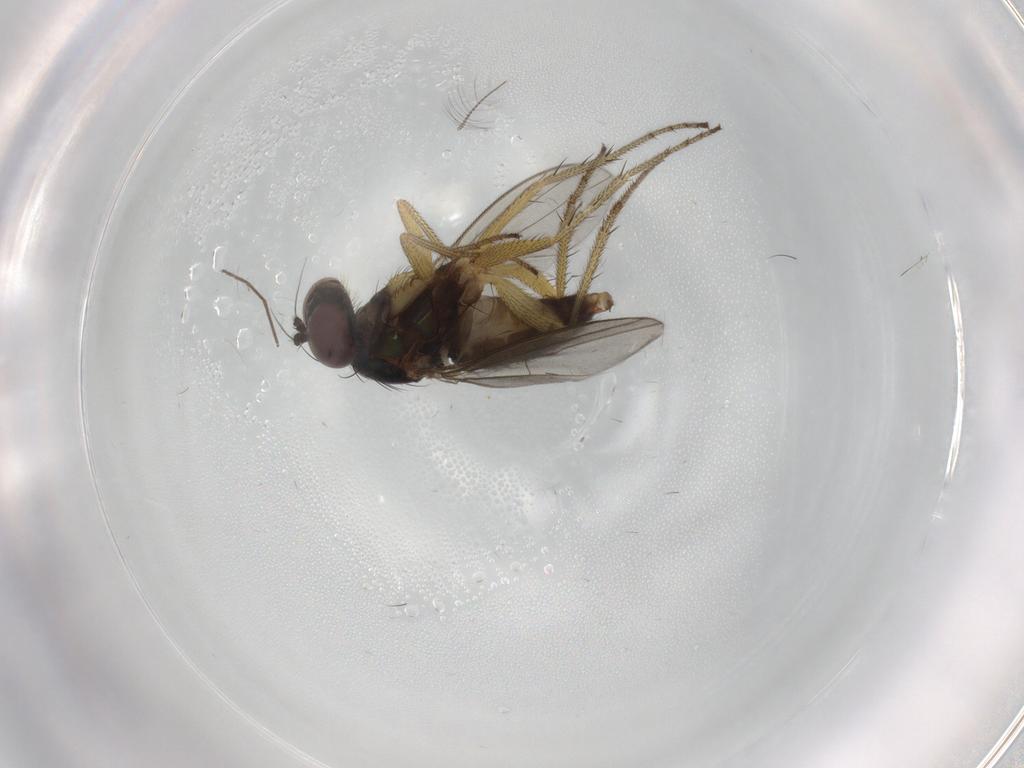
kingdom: Animalia
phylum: Arthropoda
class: Insecta
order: Diptera
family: Chironomidae
